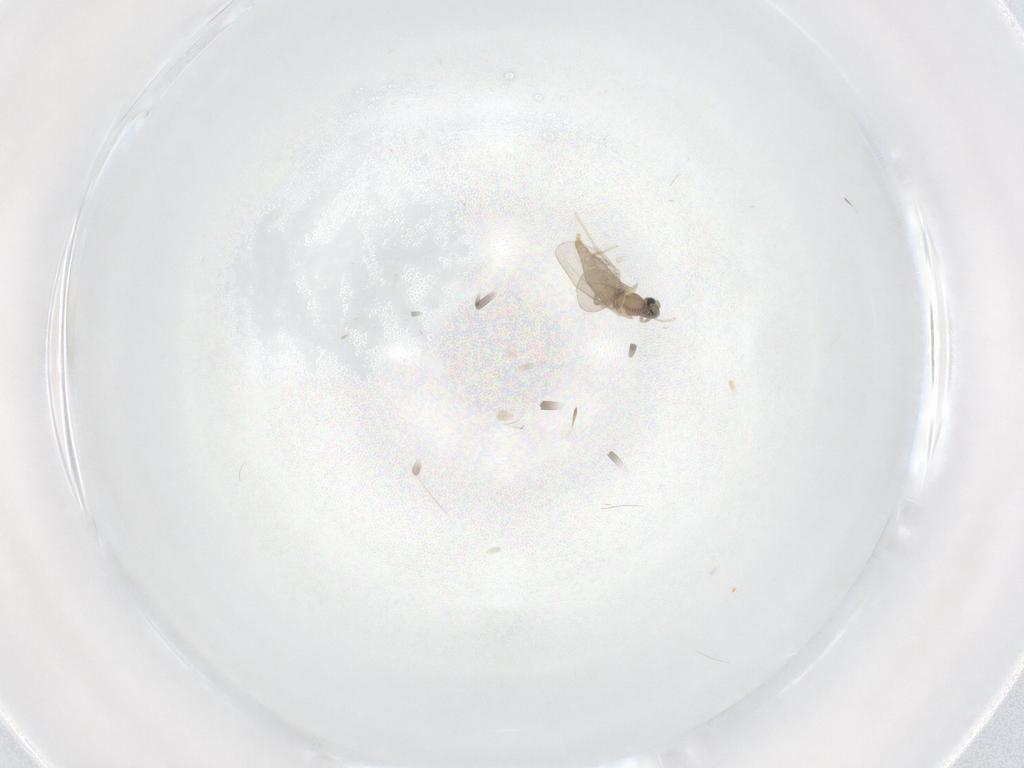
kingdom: Animalia
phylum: Arthropoda
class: Insecta
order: Diptera
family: Cecidomyiidae
